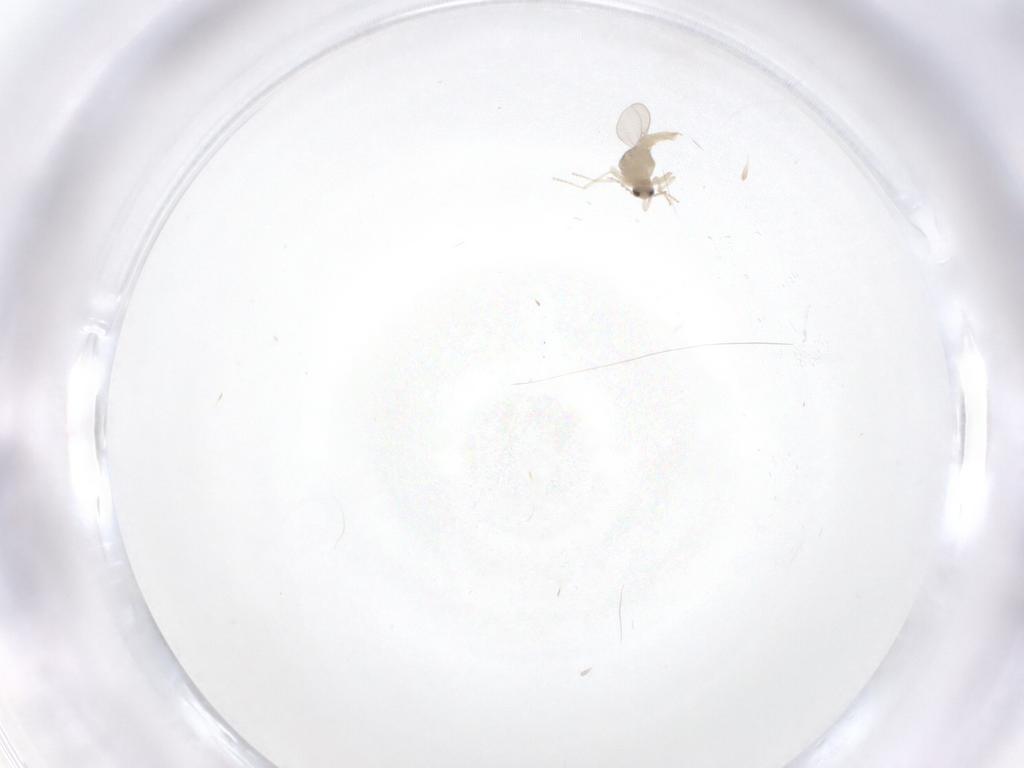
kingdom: Animalia
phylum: Arthropoda
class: Insecta
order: Diptera
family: Cecidomyiidae
